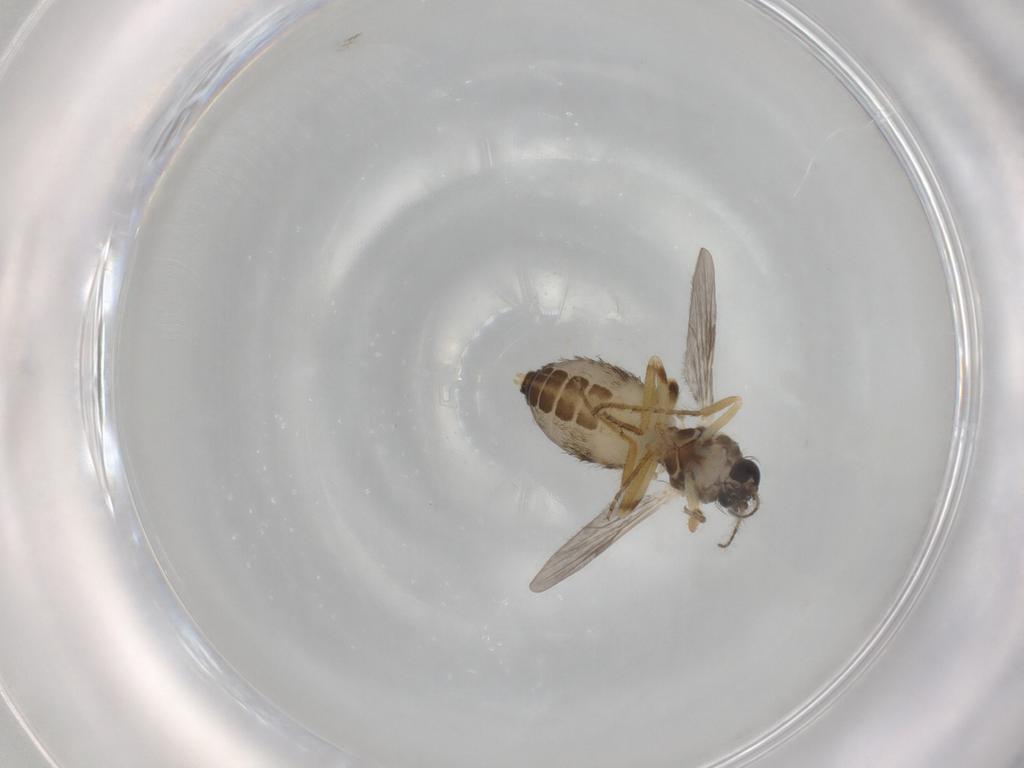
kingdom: Animalia
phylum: Arthropoda
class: Insecta
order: Diptera
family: Ceratopogonidae
